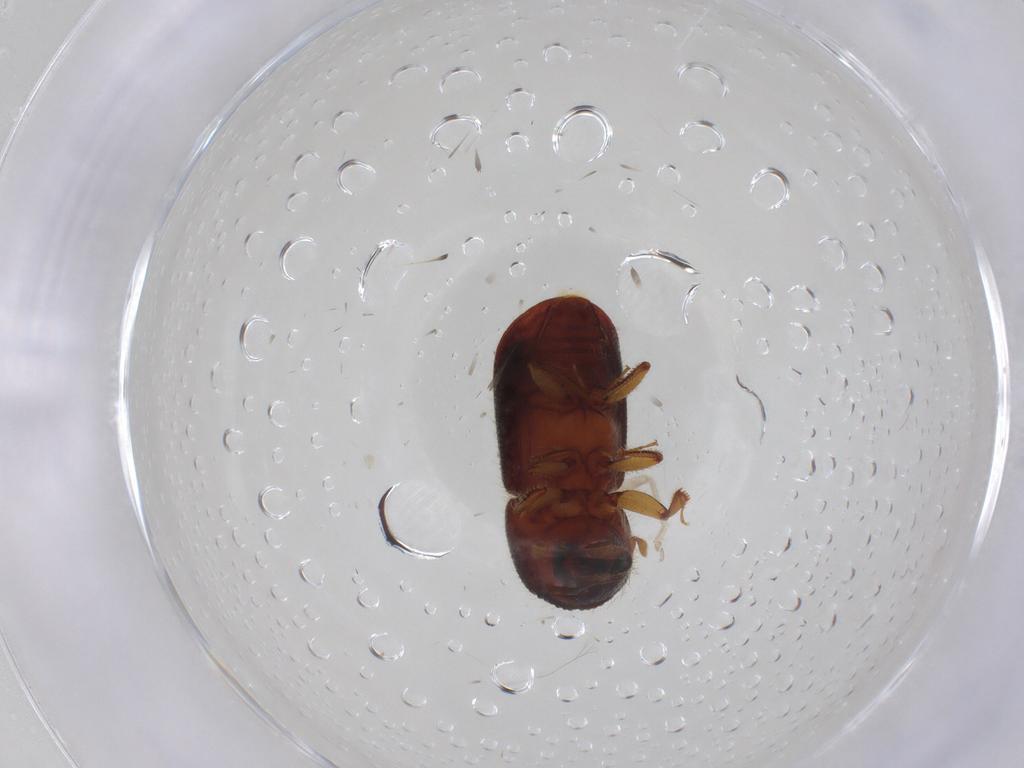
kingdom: Animalia
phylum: Arthropoda
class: Insecta
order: Coleoptera
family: Curculionidae
